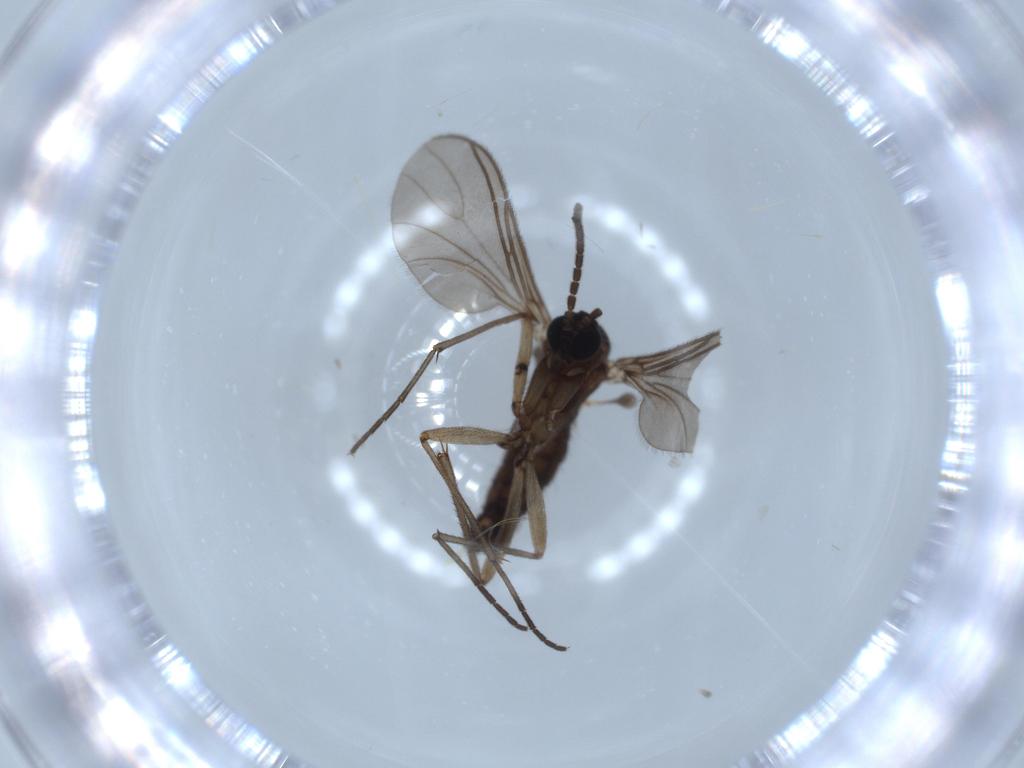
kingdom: Animalia
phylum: Arthropoda
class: Insecta
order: Diptera
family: Sciaridae
